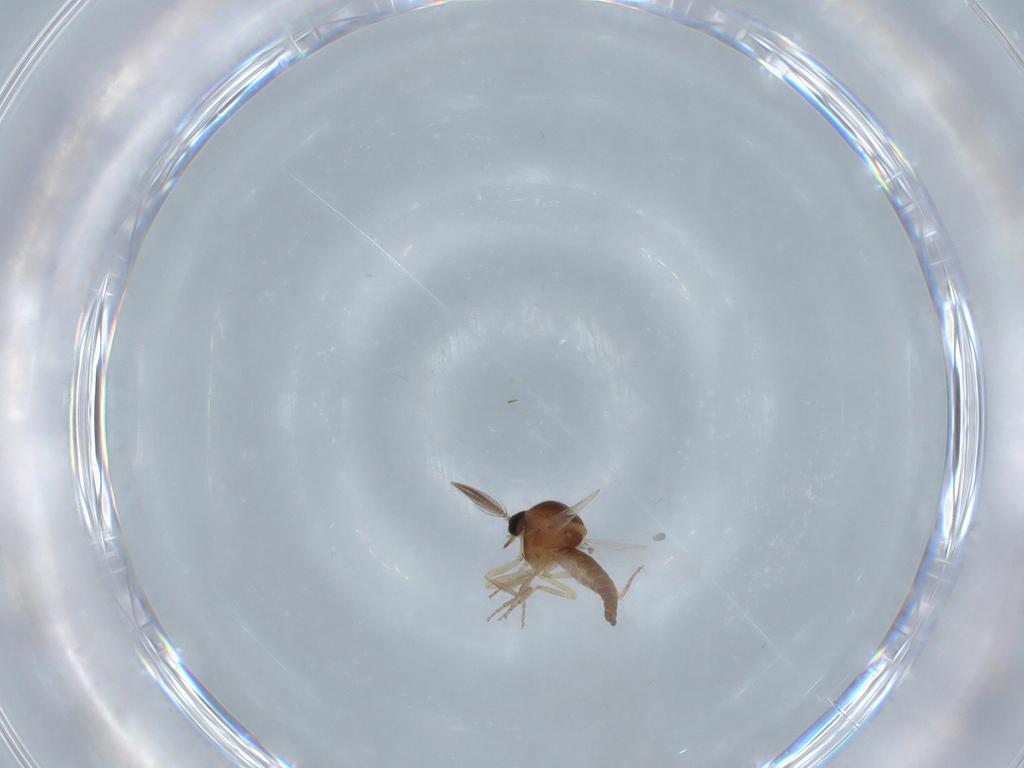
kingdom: Animalia
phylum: Arthropoda
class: Insecta
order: Diptera
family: Ceratopogonidae
